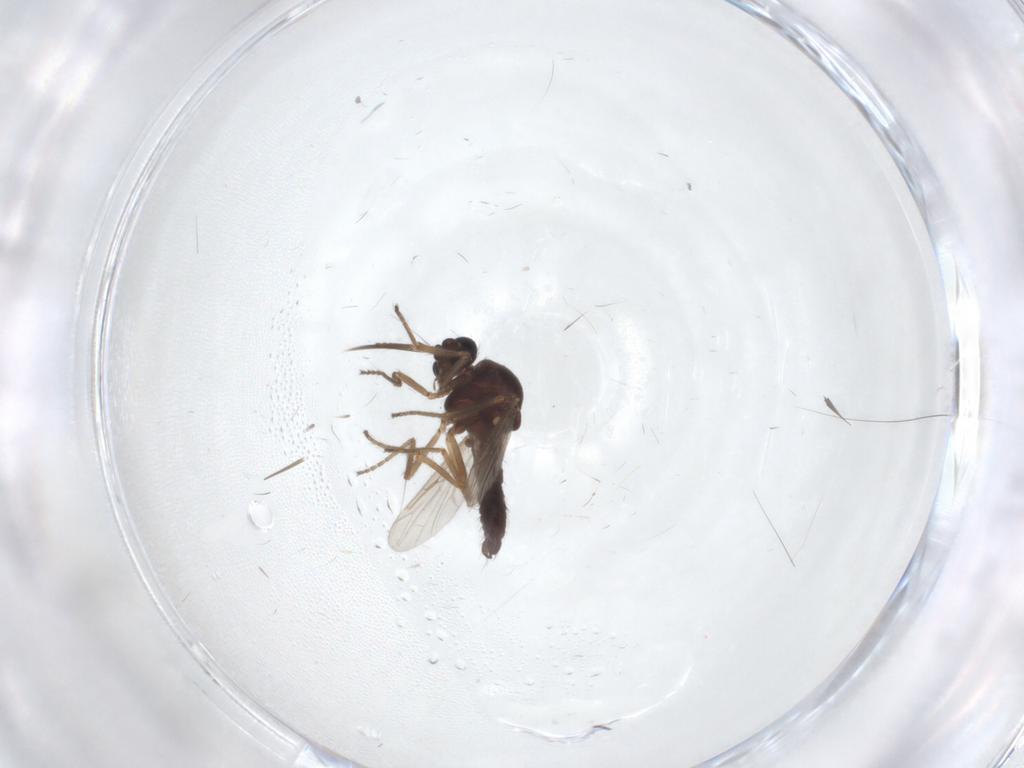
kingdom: Animalia
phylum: Arthropoda
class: Insecta
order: Diptera
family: Ceratopogonidae
